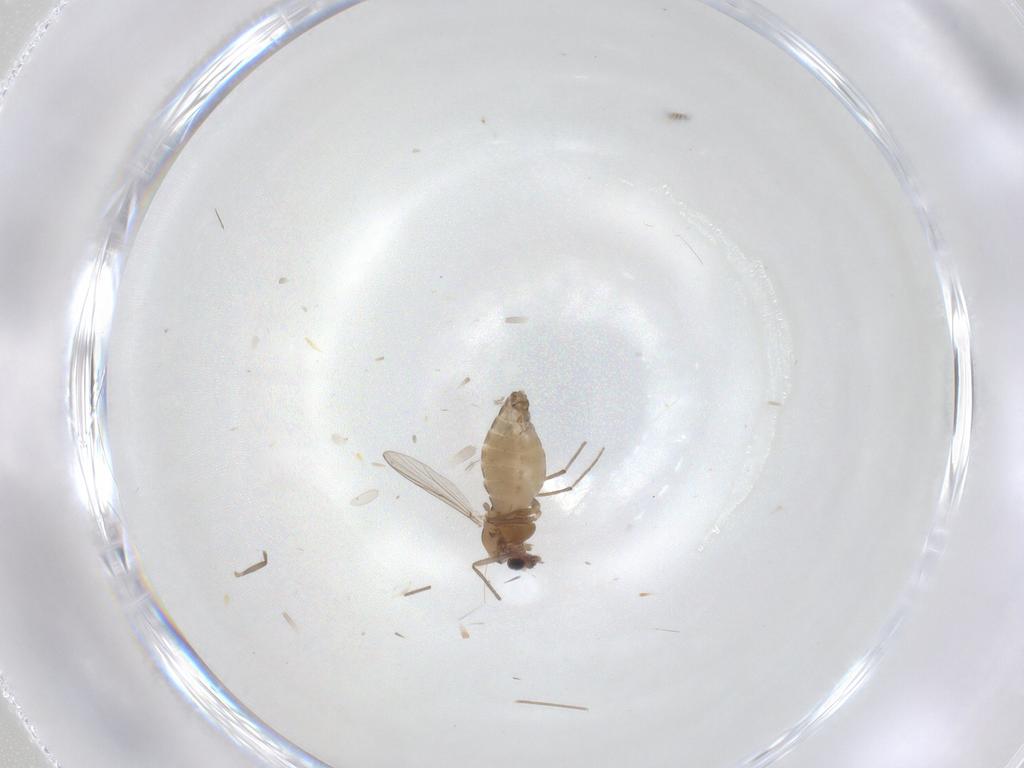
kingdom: Animalia
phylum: Arthropoda
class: Insecta
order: Diptera
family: Chironomidae
